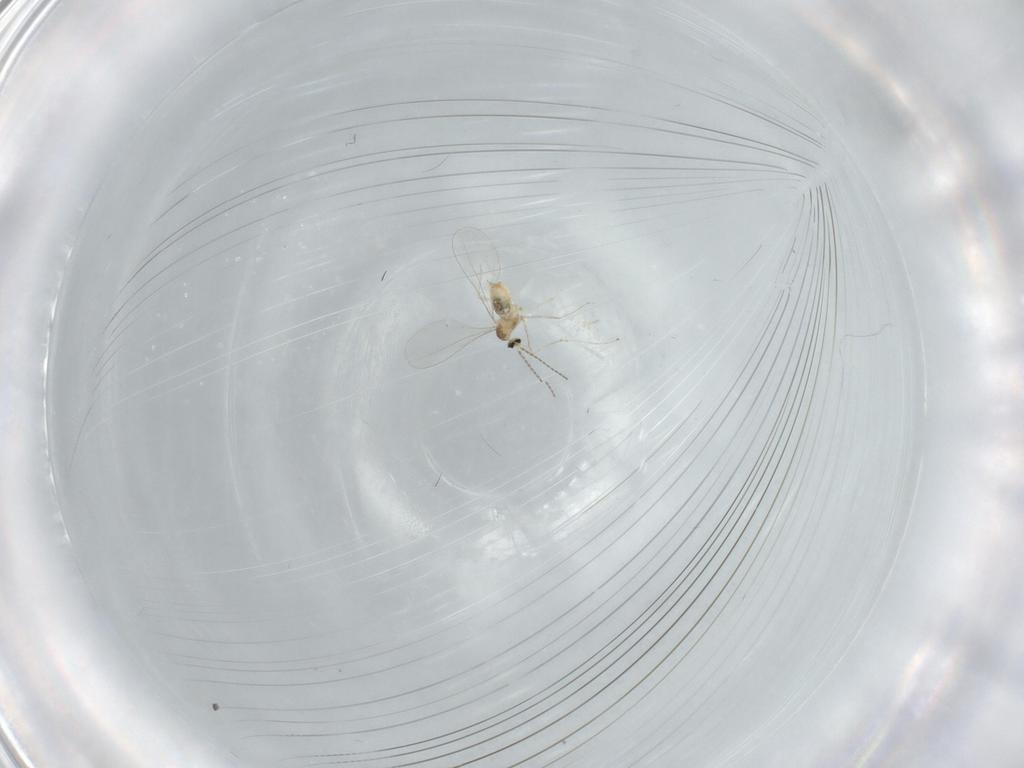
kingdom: Animalia
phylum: Arthropoda
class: Insecta
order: Diptera
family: Cecidomyiidae
